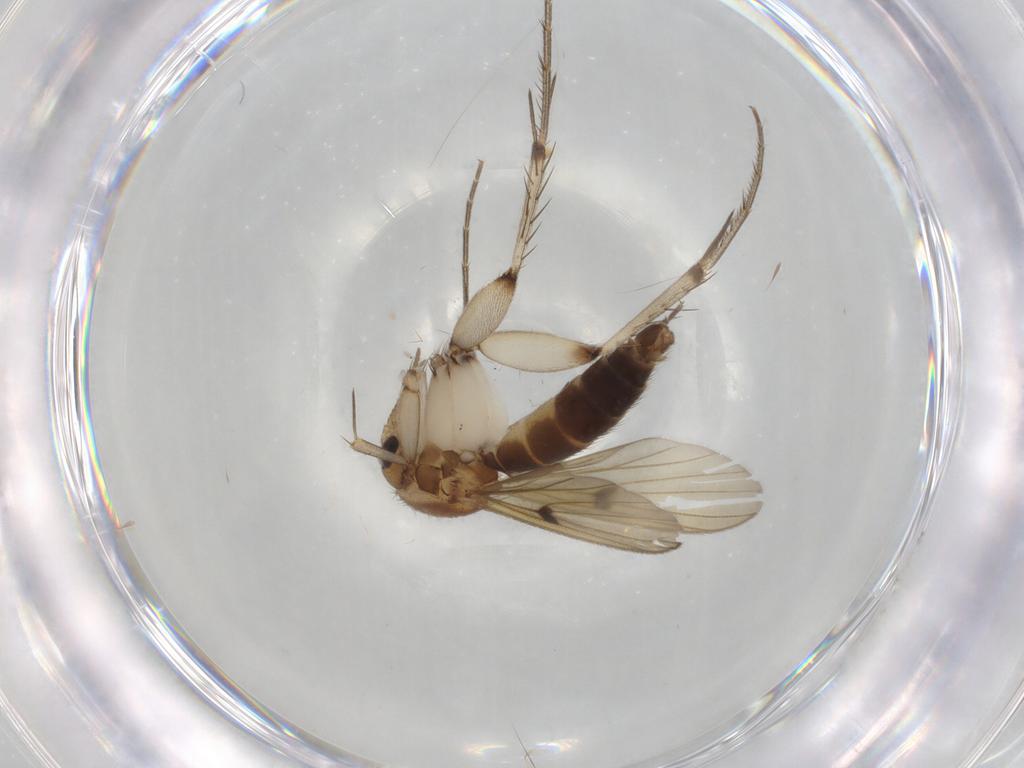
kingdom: Animalia
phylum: Arthropoda
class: Insecta
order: Diptera
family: Mycetophilidae
